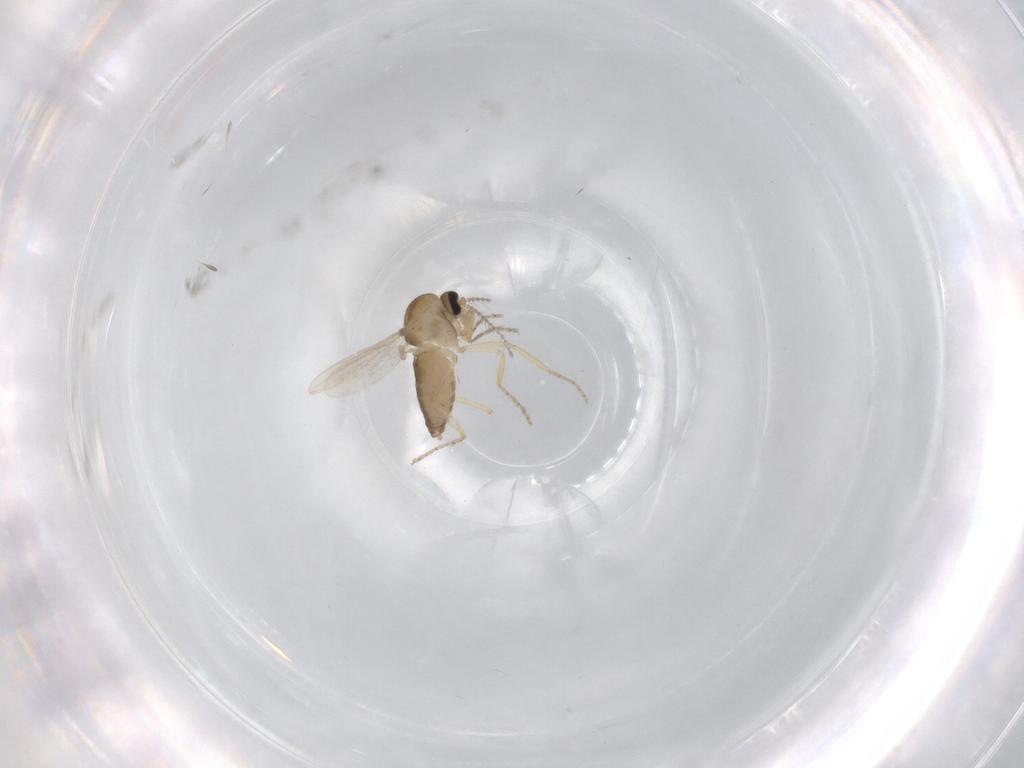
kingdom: Animalia
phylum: Arthropoda
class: Insecta
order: Diptera
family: Ceratopogonidae
